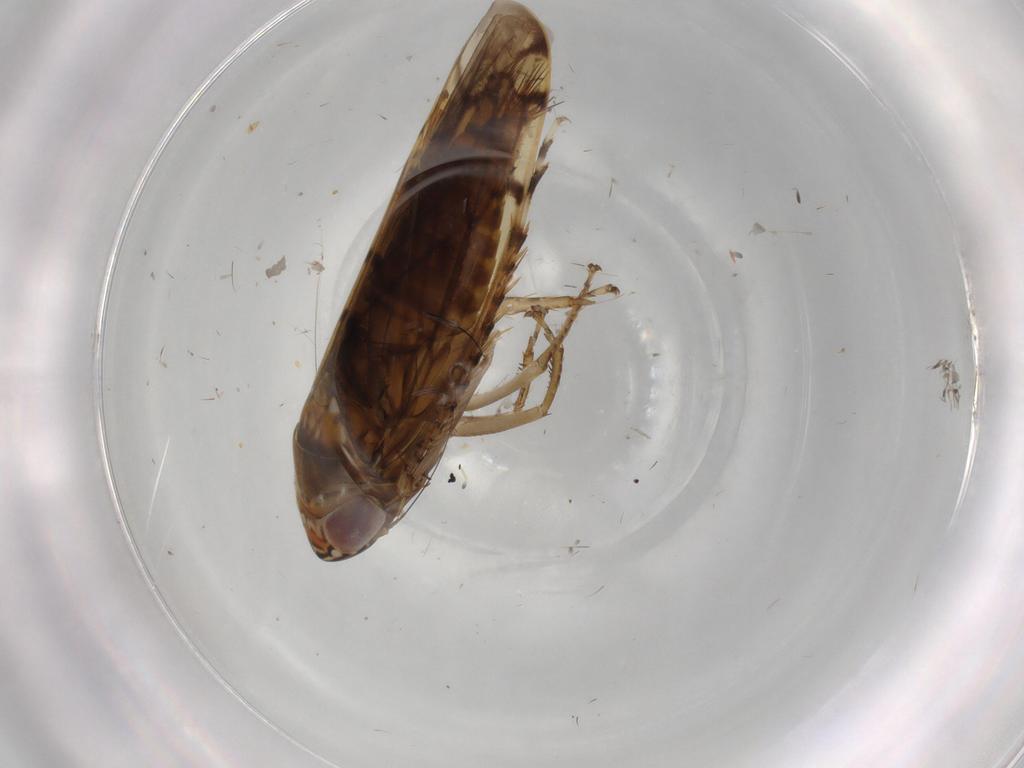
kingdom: Animalia
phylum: Arthropoda
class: Insecta
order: Hemiptera
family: Cicadellidae
